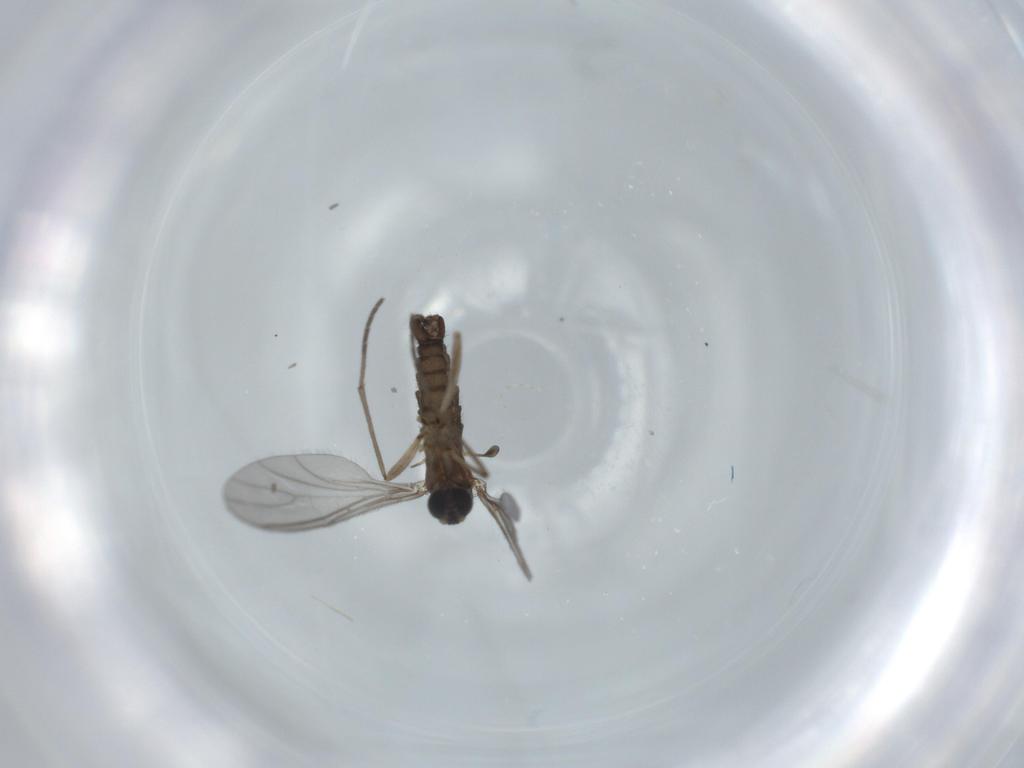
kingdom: Animalia
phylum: Arthropoda
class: Insecta
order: Diptera
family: Sciaridae
